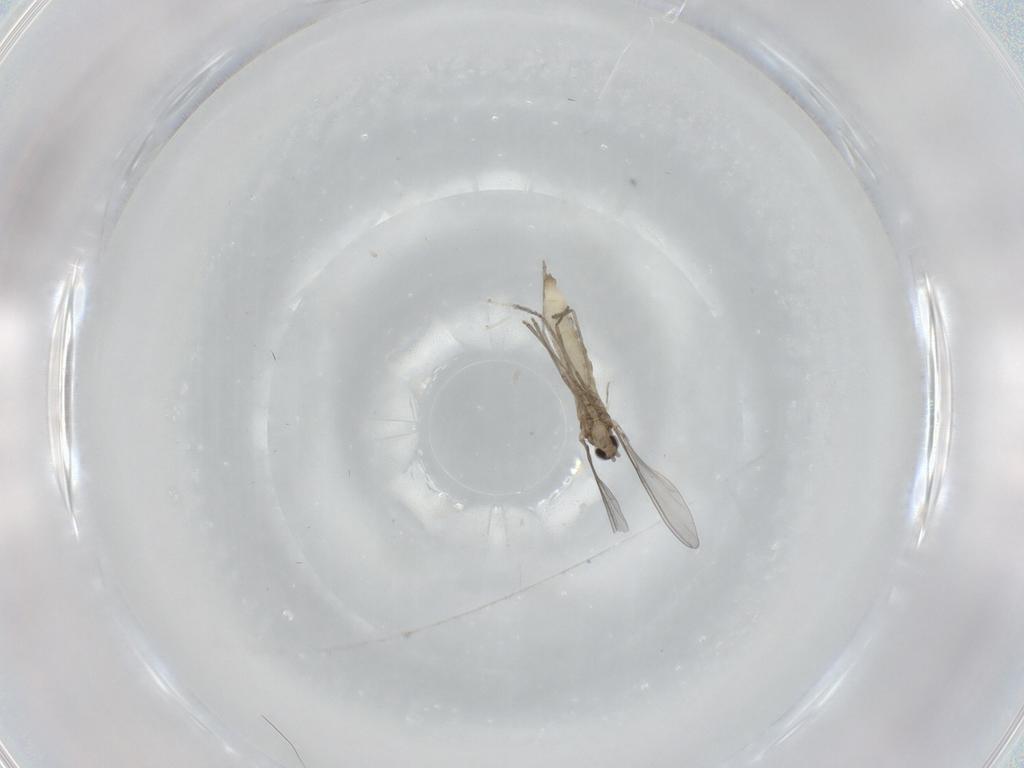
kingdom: Animalia
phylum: Arthropoda
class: Insecta
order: Diptera
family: Cecidomyiidae
